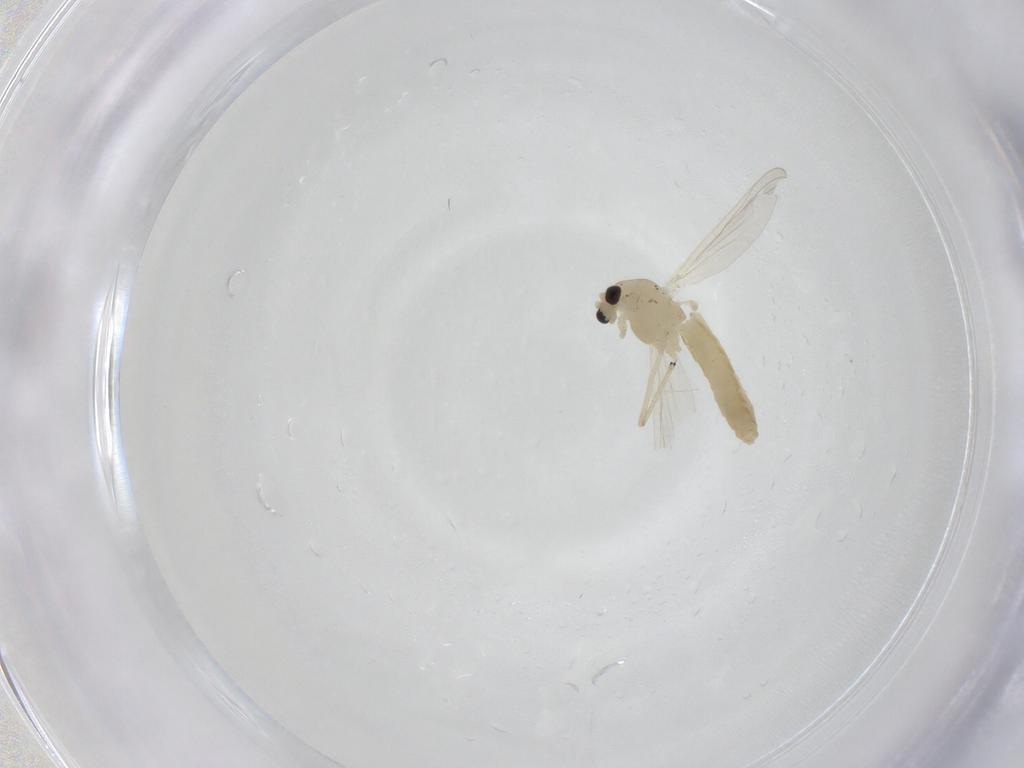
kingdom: Animalia
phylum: Arthropoda
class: Insecta
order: Diptera
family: Chironomidae
